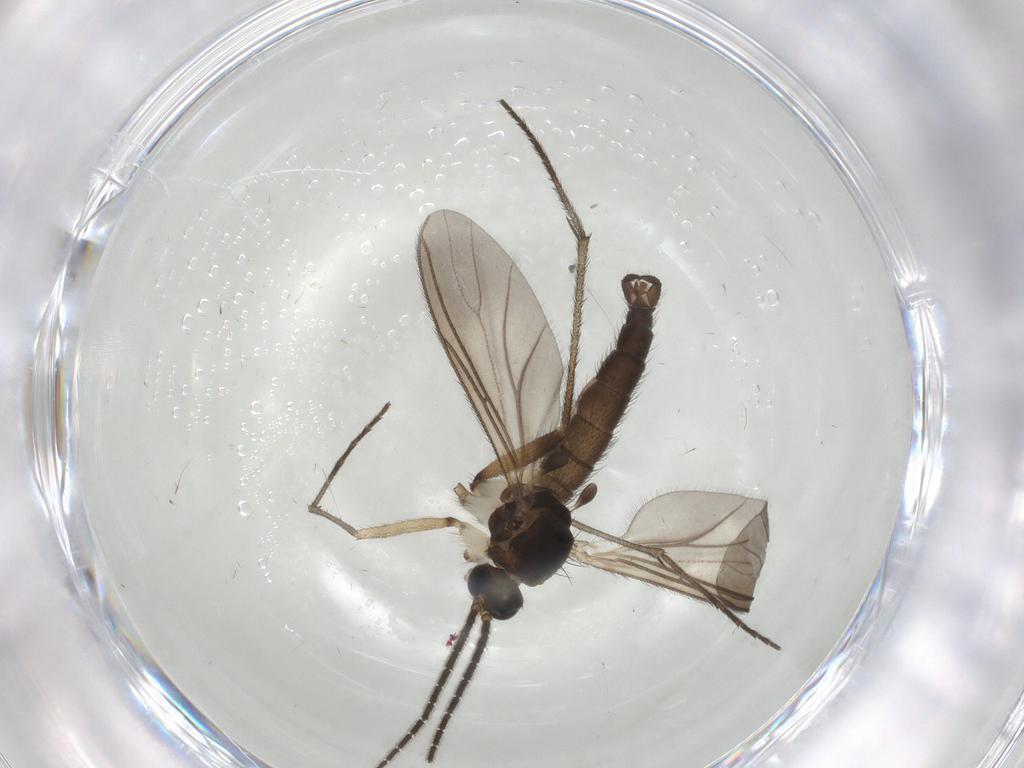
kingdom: Animalia
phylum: Arthropoda
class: Insecta
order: Diptera
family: Sciaridae
